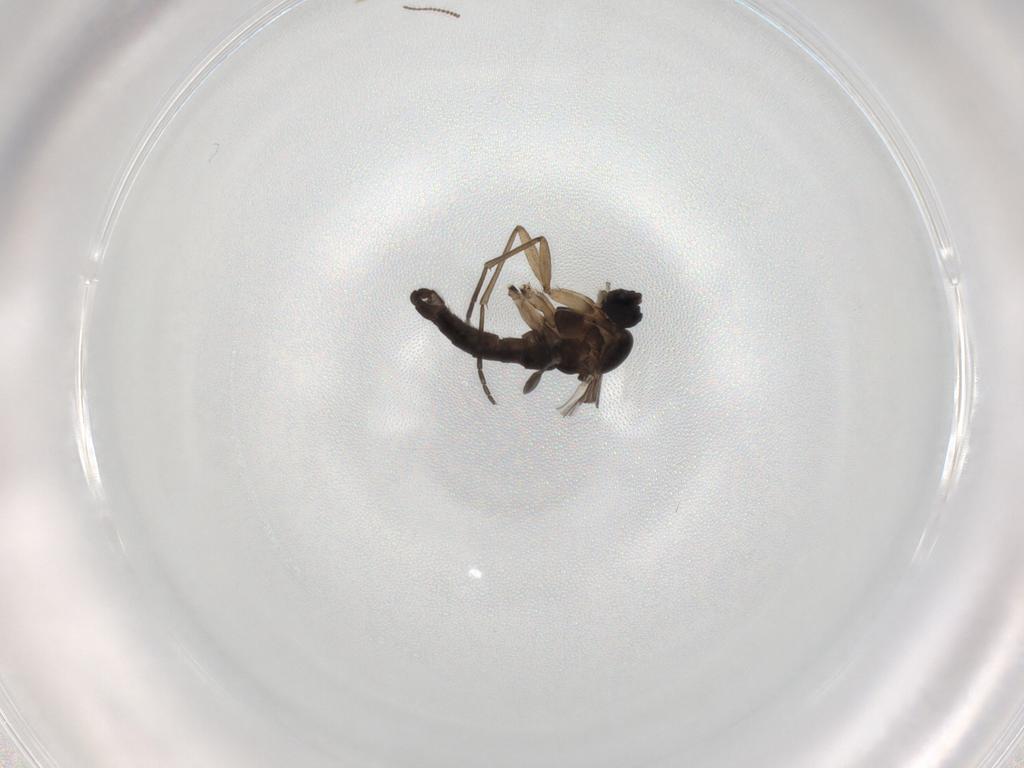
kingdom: Animalia
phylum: Arthropoda
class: Insecta
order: Diptera
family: Sciaridae
